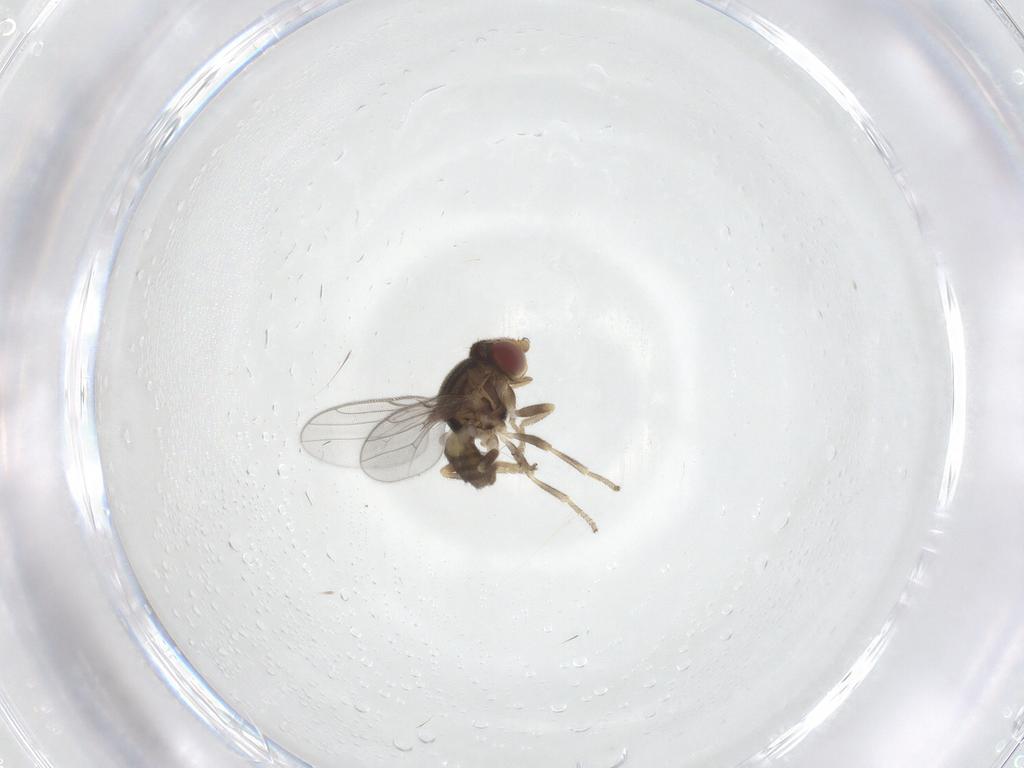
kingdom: Animalia
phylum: Arthropoda
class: Insecta
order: Diptera
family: Chloropidae
